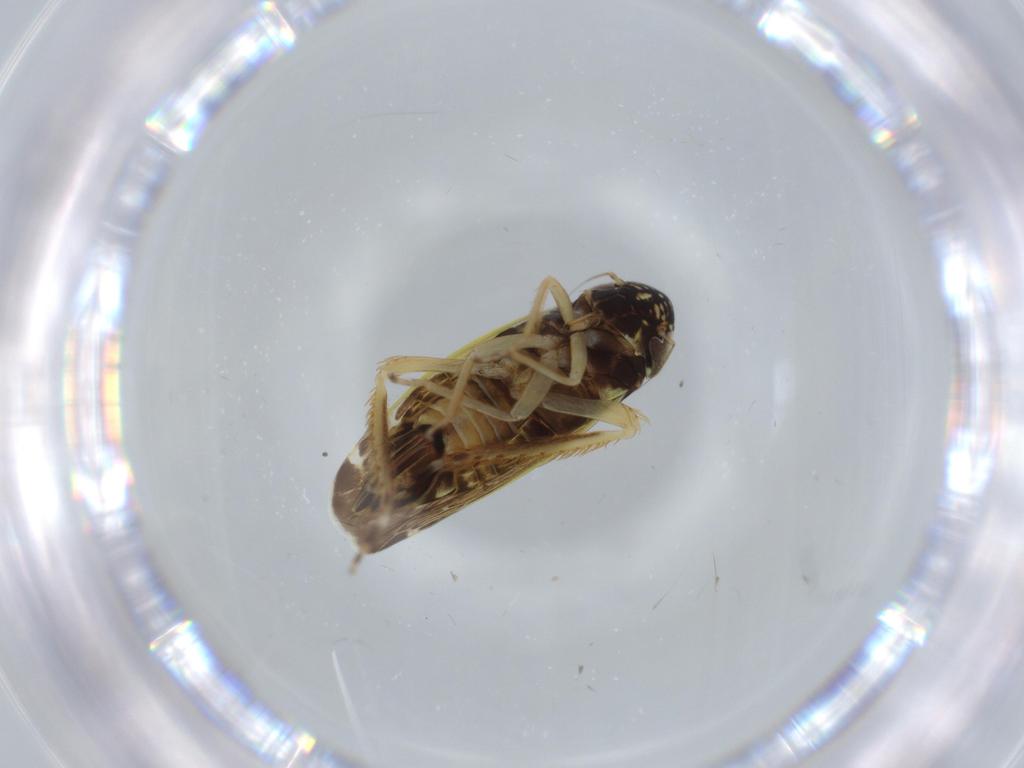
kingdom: Animalia
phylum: Arthropoda
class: Insecta
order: Hemiptera
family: Cicadellidae
